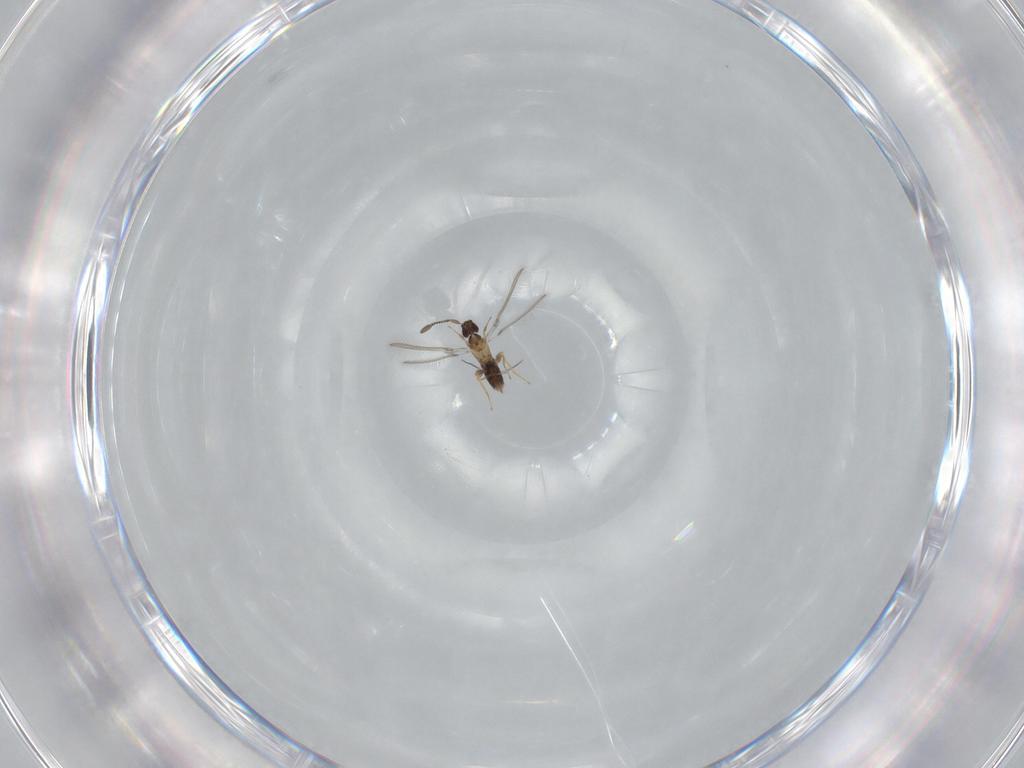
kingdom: Animalia
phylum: Arthropoda
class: Insecta
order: Hymenoptera
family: Mymaridae
